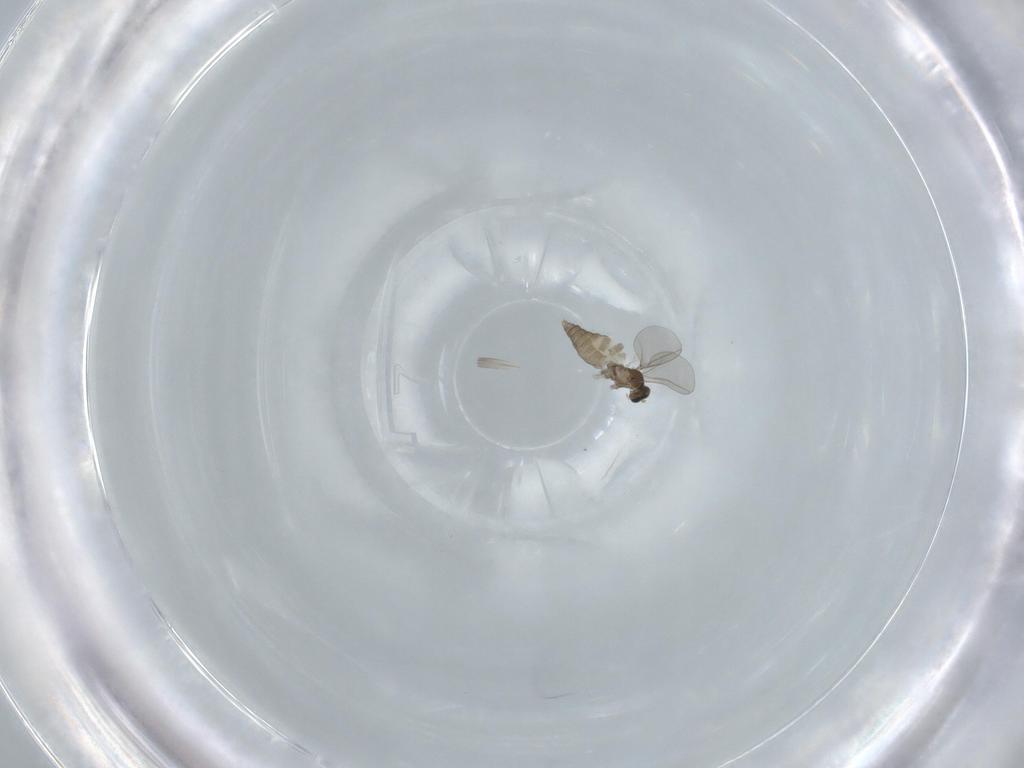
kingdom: Animalia
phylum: Arthropoda
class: Insecta
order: Diptera
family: Cecidomyiidae
